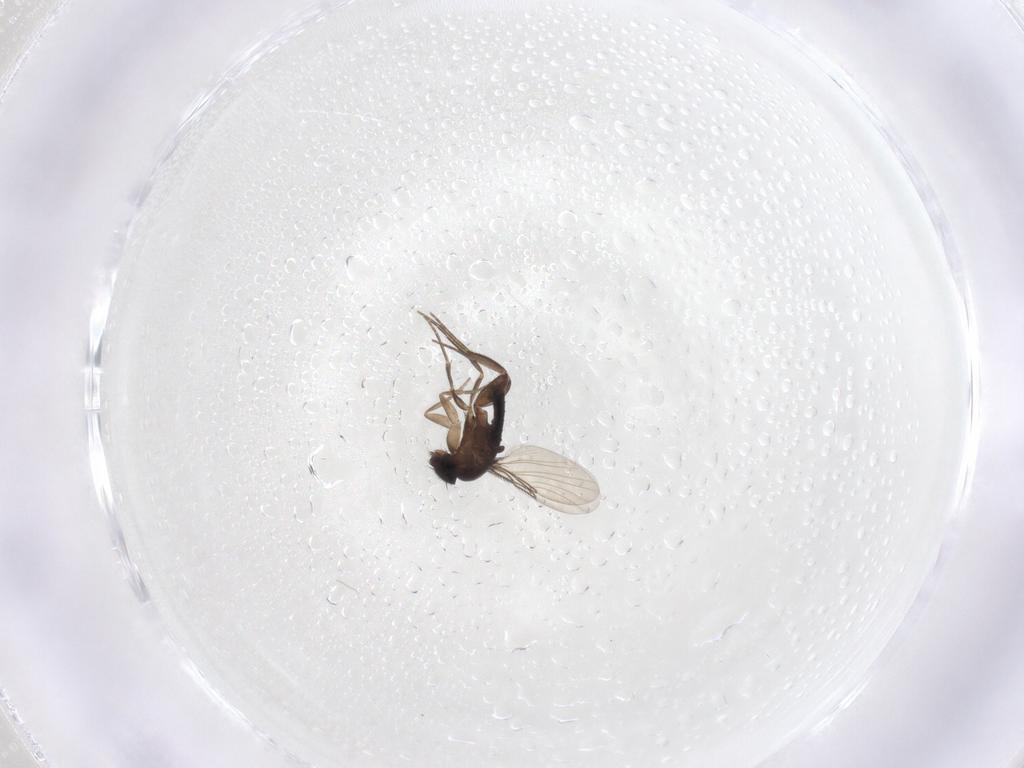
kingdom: Animalia
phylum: Arthropoda
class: Insecta
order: Diptera
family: Phoridae
